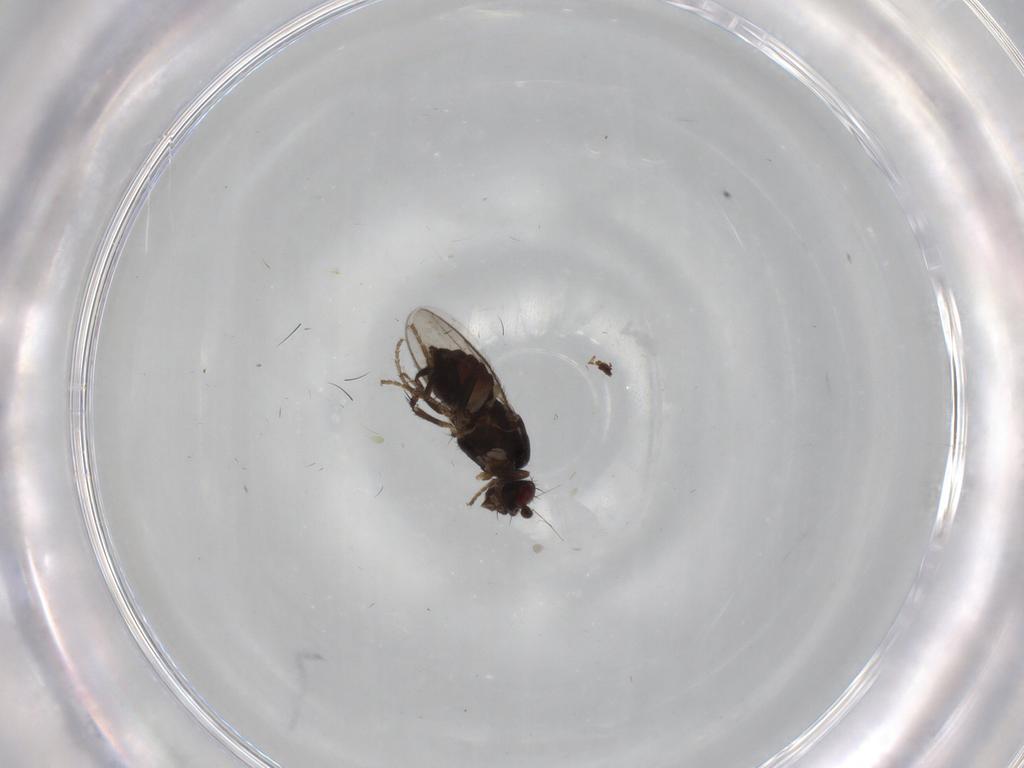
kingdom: Animalia
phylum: Arthropoda
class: Insecta
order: Diptera
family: Sphaeroceridae
